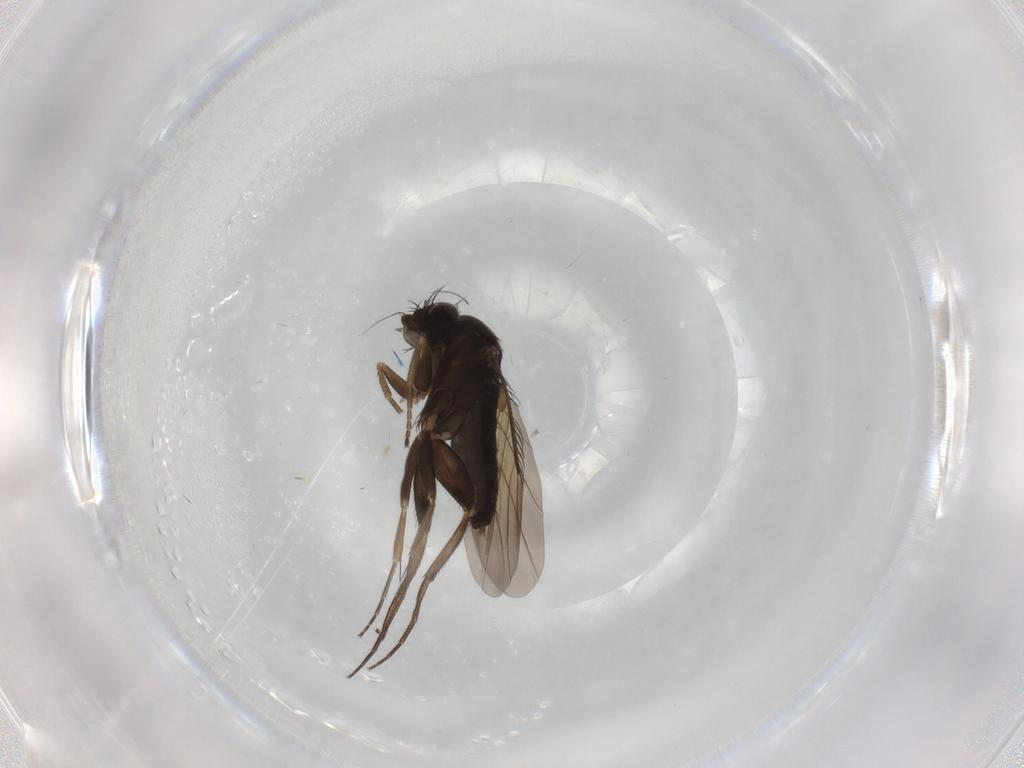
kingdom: Animalia
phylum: Arthropoda
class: Insecta
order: Diptera
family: Phoridae
